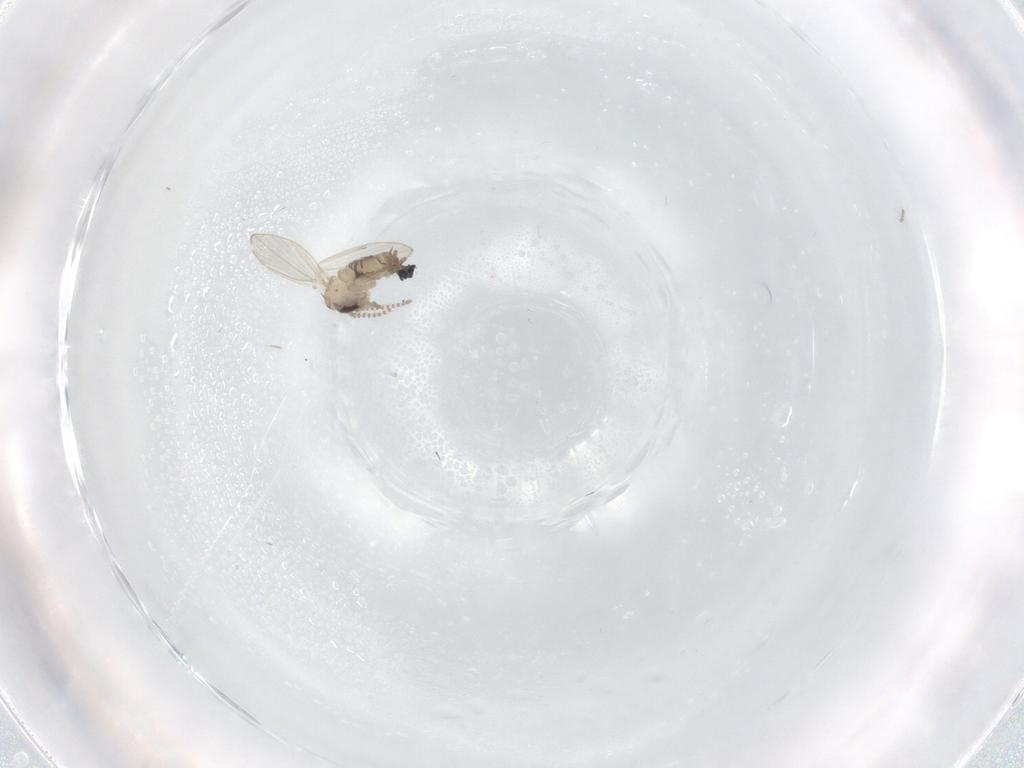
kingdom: Animalia
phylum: Arthropoda
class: Insecta
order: Diptera
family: Psychodidae
